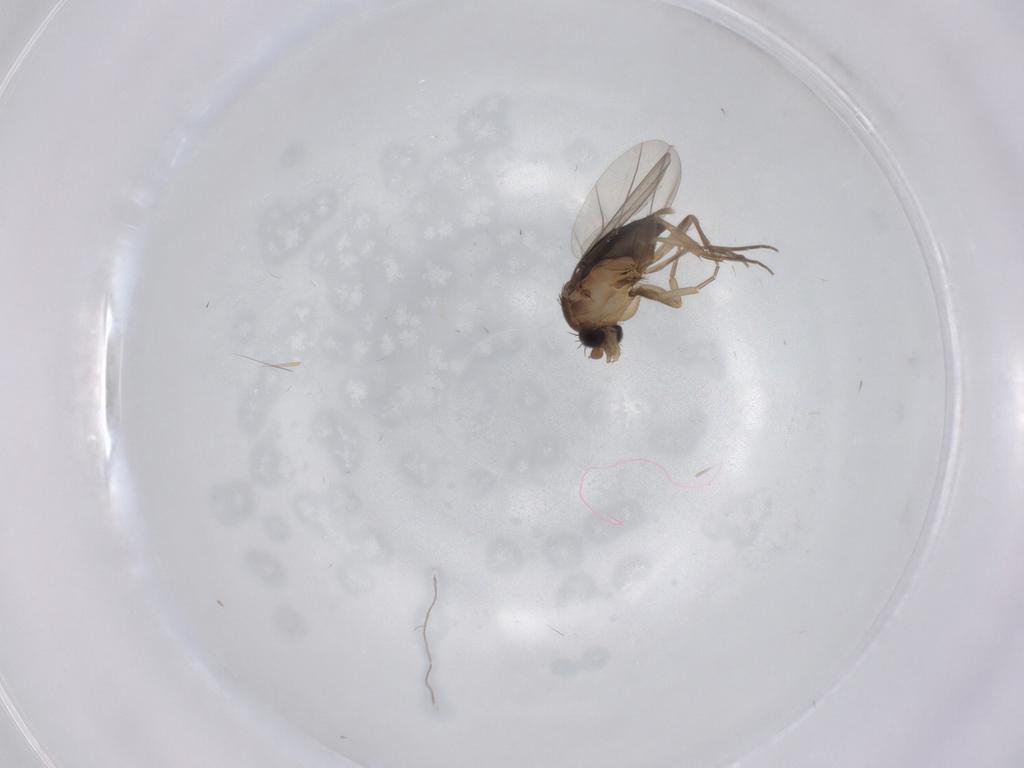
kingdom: Animalia
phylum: Arthropoda
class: Insecta
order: Diptera
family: Phoridae
